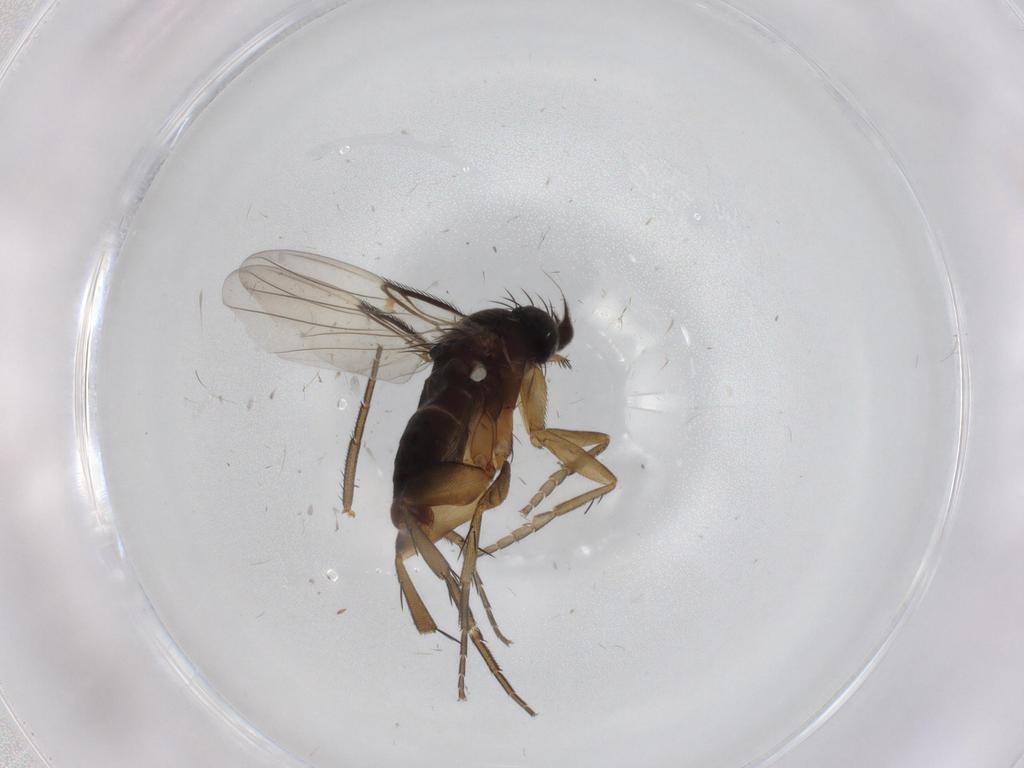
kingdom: Animalia
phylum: Arthropoda
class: Insecta
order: Diptera
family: Phoridae
